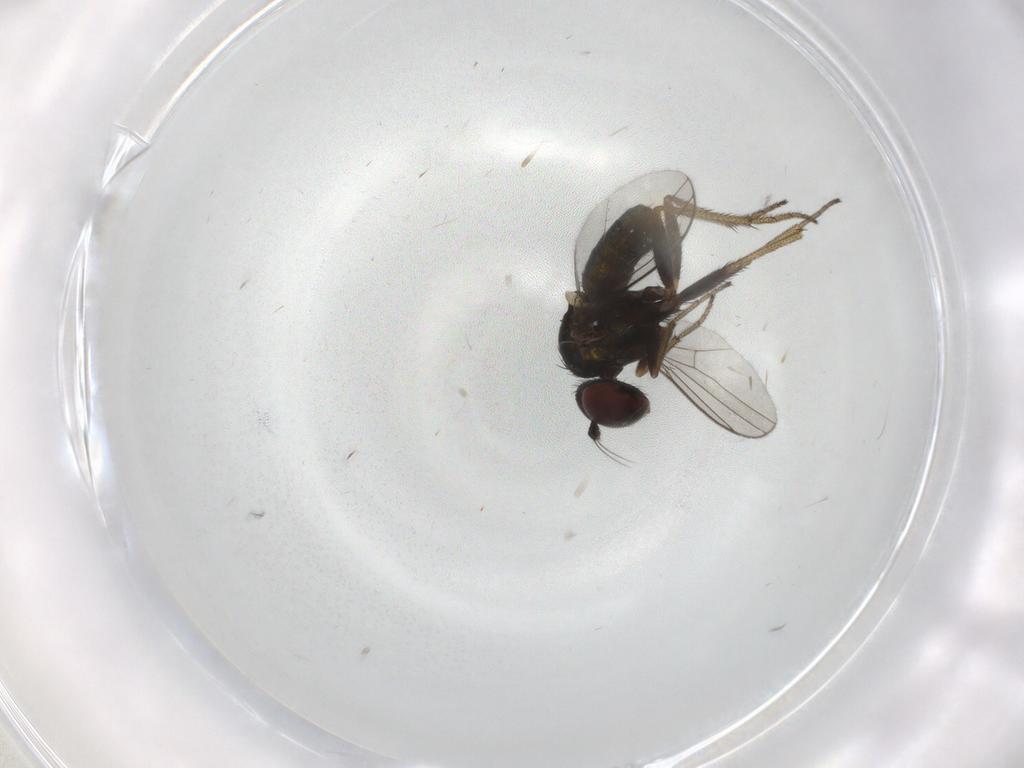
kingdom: Animalia
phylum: Arthropoda
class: Insecta
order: Diptera
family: Dolichopodidae
